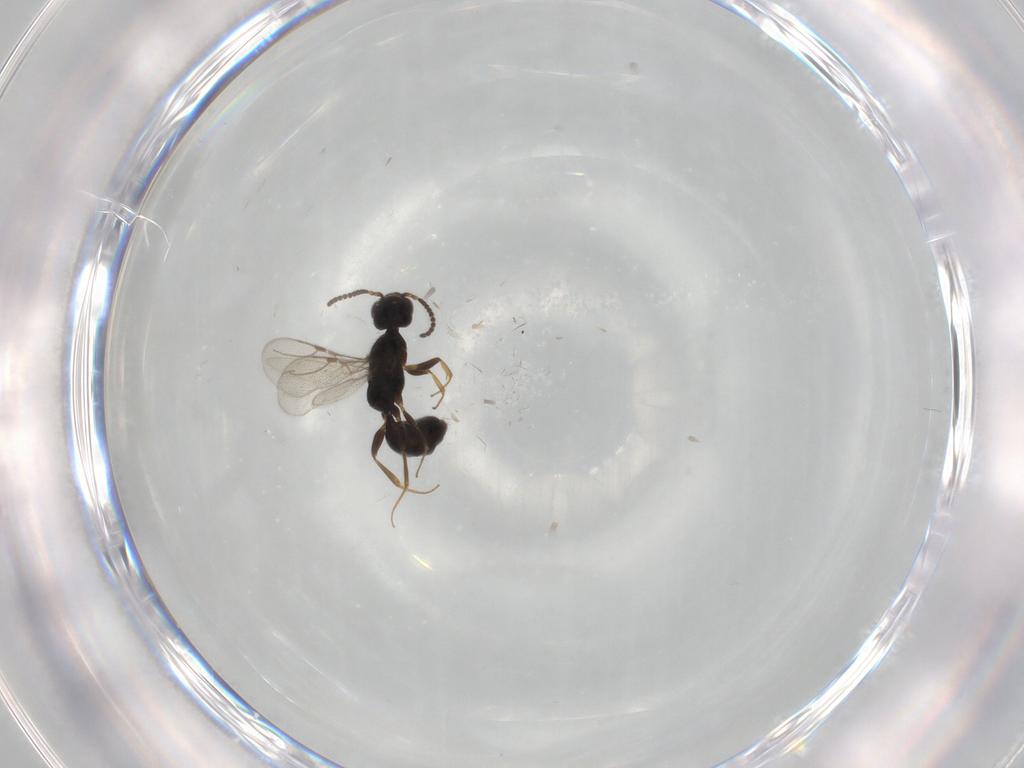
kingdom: Animalia
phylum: Arthropoda
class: Insecta
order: Hymenoptera
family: Bethylidae
